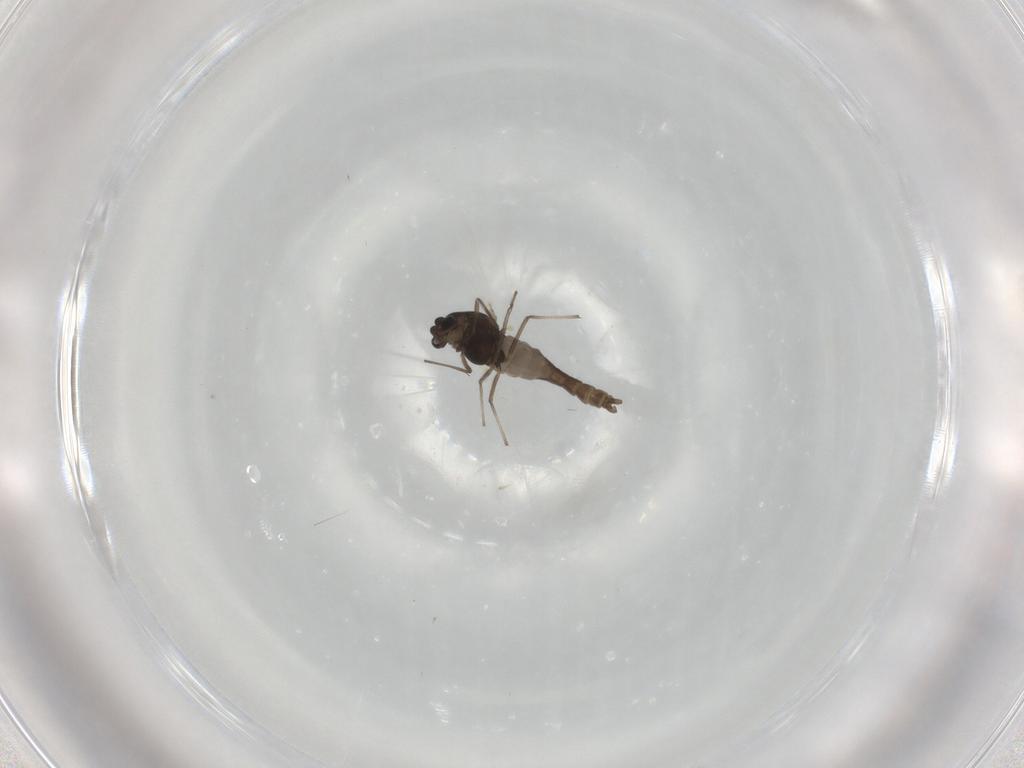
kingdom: Animalia
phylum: Arthropoda
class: Insecta
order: Diptera
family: Chironomidae
